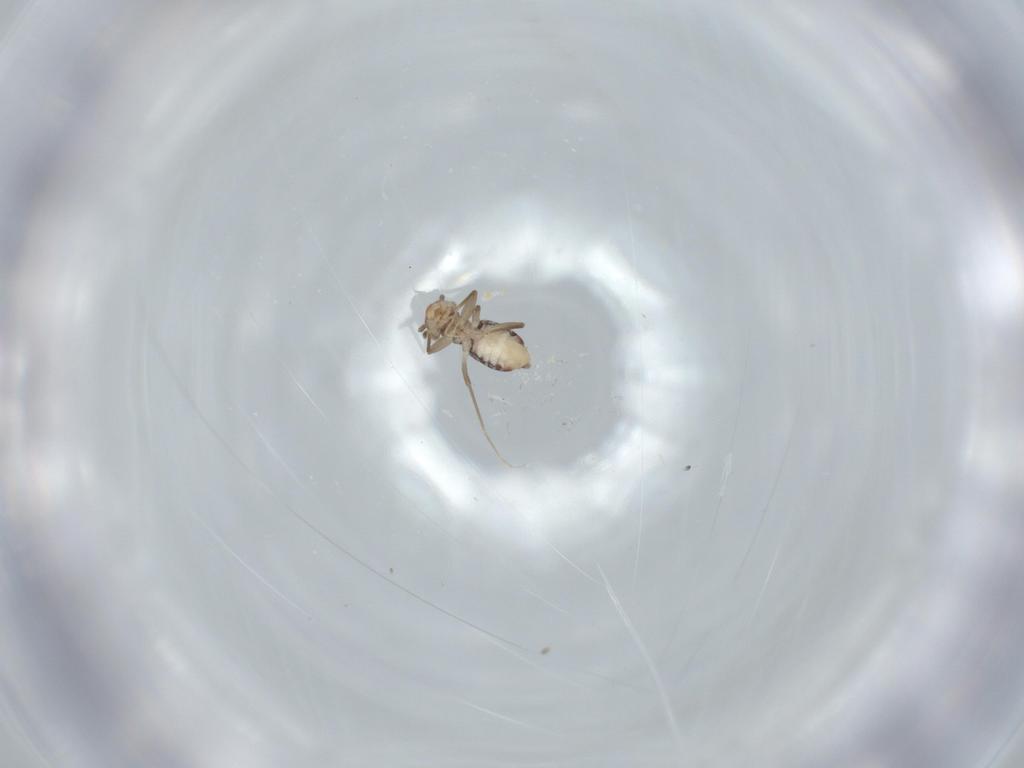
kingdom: Animalia
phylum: Arthropoda
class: Insecta
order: Psocodea
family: Lepidopsocidae
